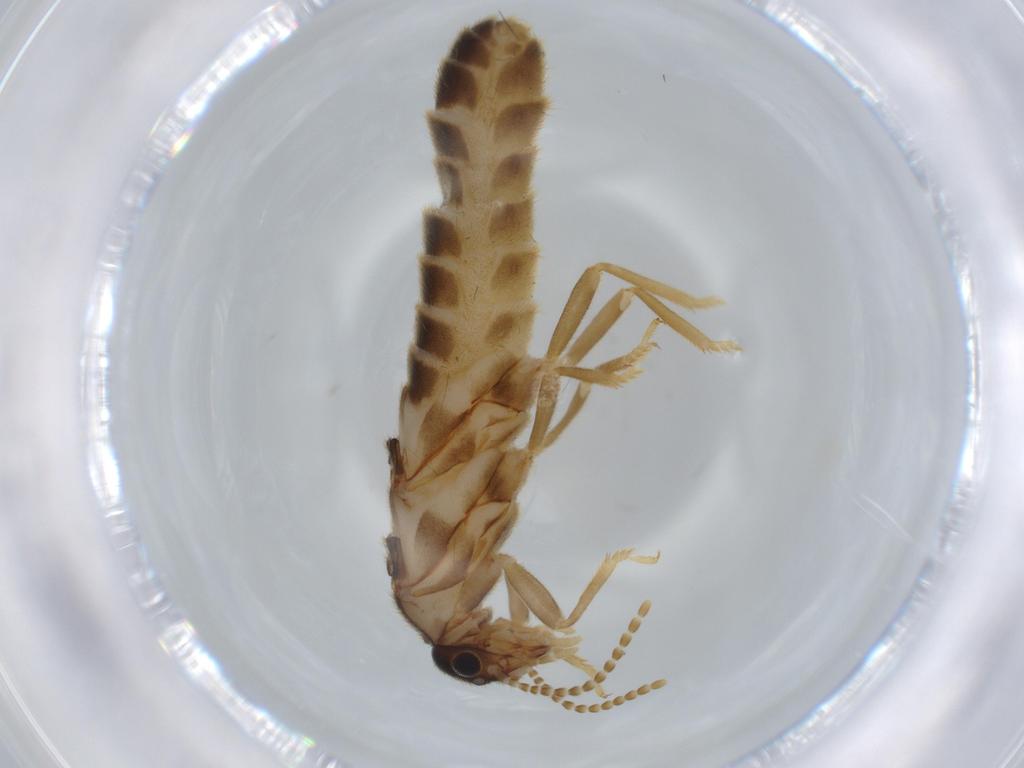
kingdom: Animalia
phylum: Arthropoda
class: Insecta
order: Blattodea
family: Termitidae
